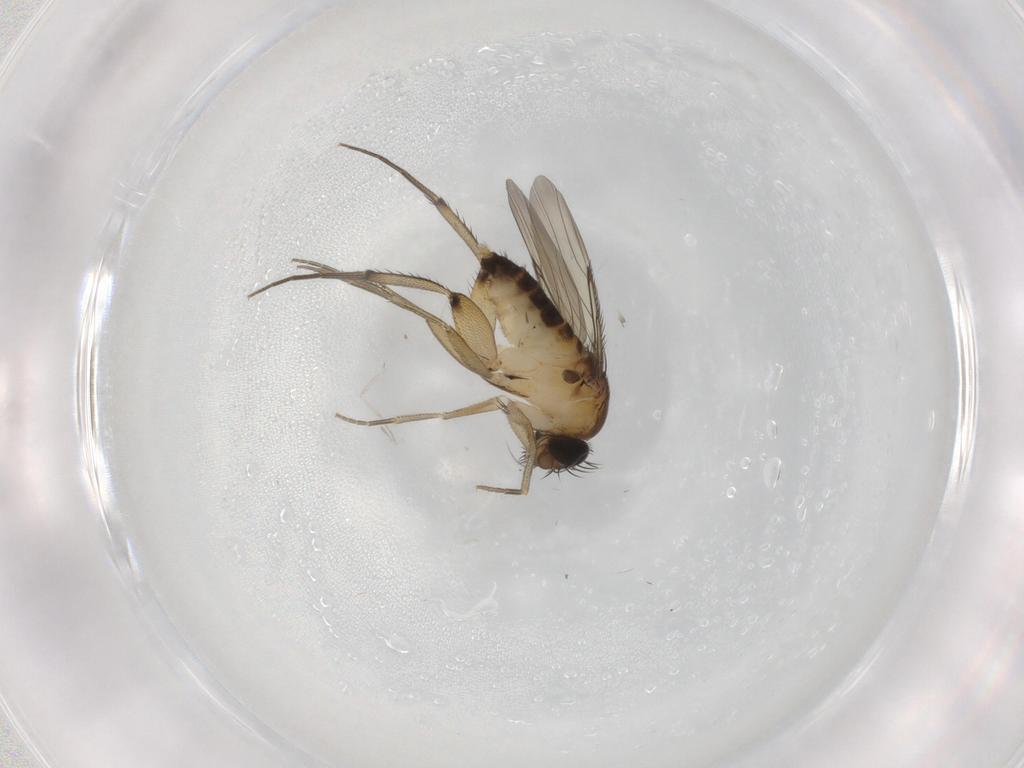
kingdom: Animalia
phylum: Arthropoda
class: Insecta
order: Diptera
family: Phoridae
